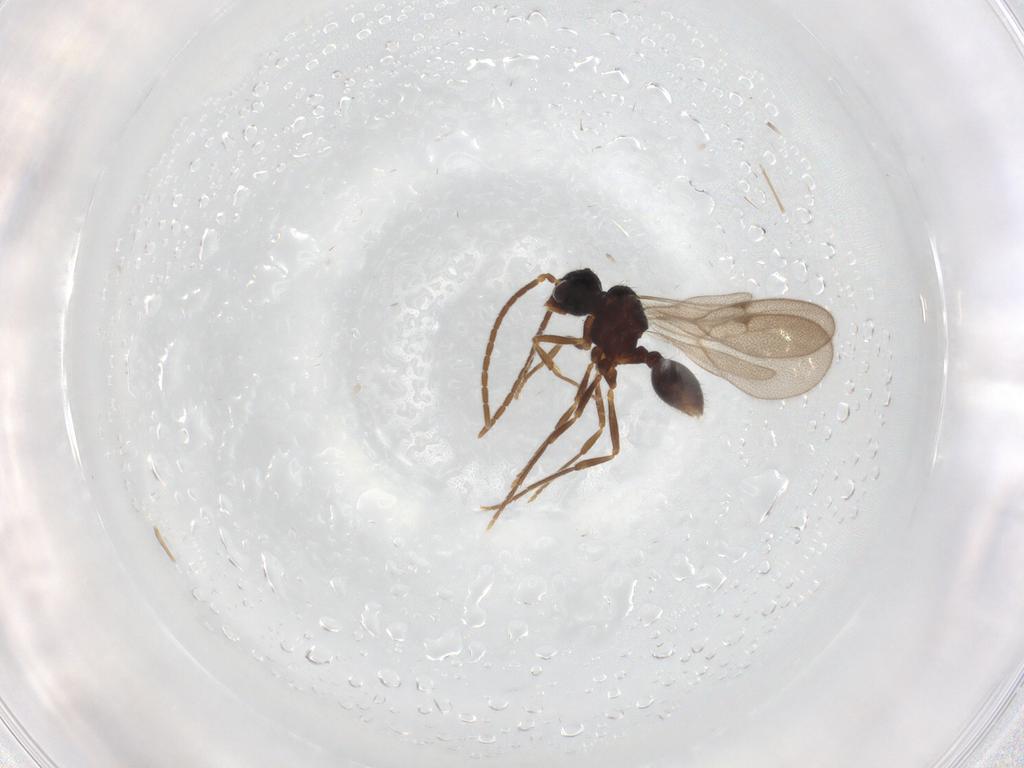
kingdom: Animalia
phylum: Arthropoda
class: Insecta
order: Hymenoptera
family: Formicidae
